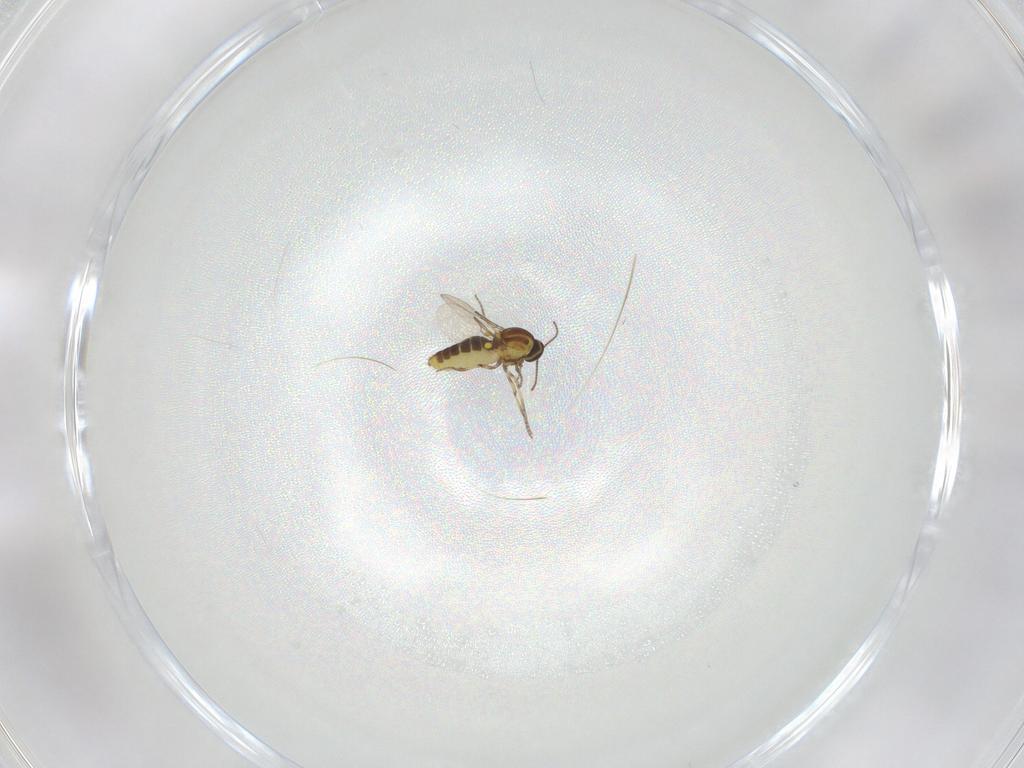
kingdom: Animalia
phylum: Arthropoda
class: Insecta
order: Diptera
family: Ceratopogonidae
